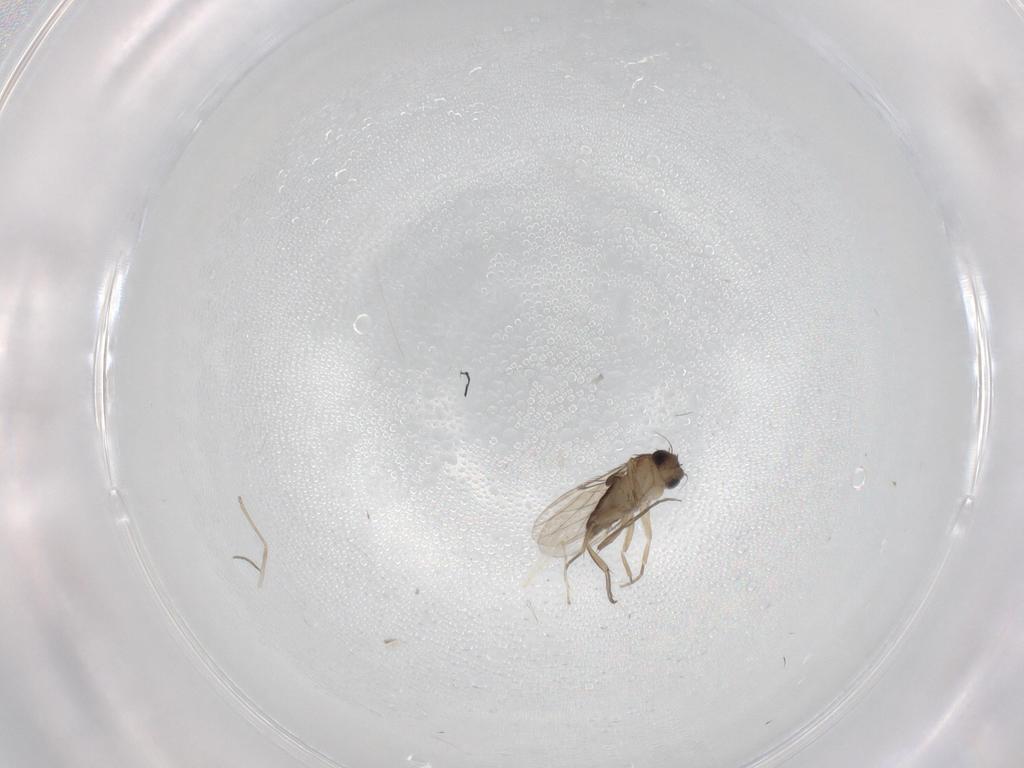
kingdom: Animalia
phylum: Arthropoda
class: Insecta
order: Diptera
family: Phoridae
